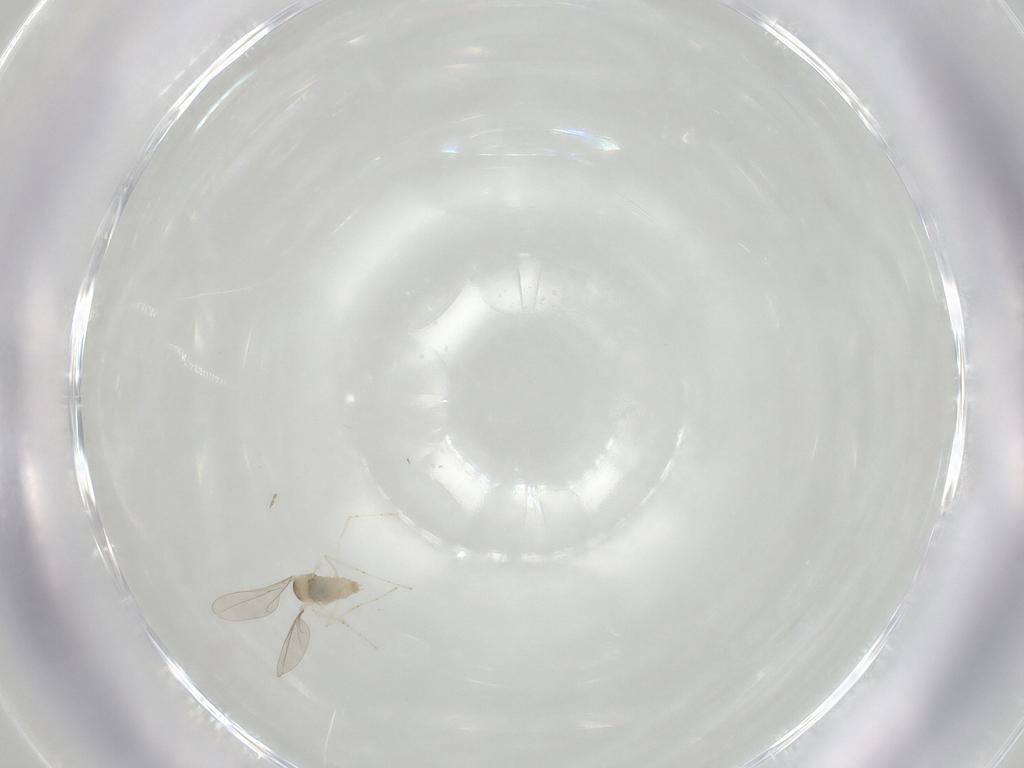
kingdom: Animalia
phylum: Arthropoda
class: Insecta
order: Diptera
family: Cecidomyiidae
